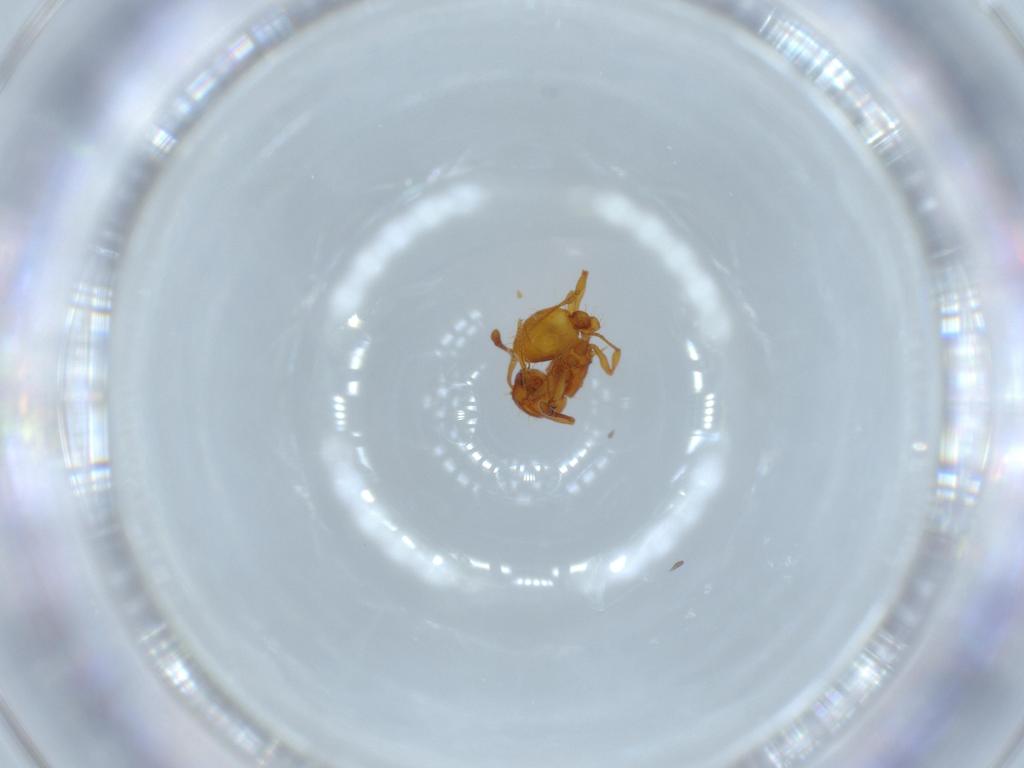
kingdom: Animalia
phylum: Arthropoda
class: Insecta
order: Hymenoptera
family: Formicidae
